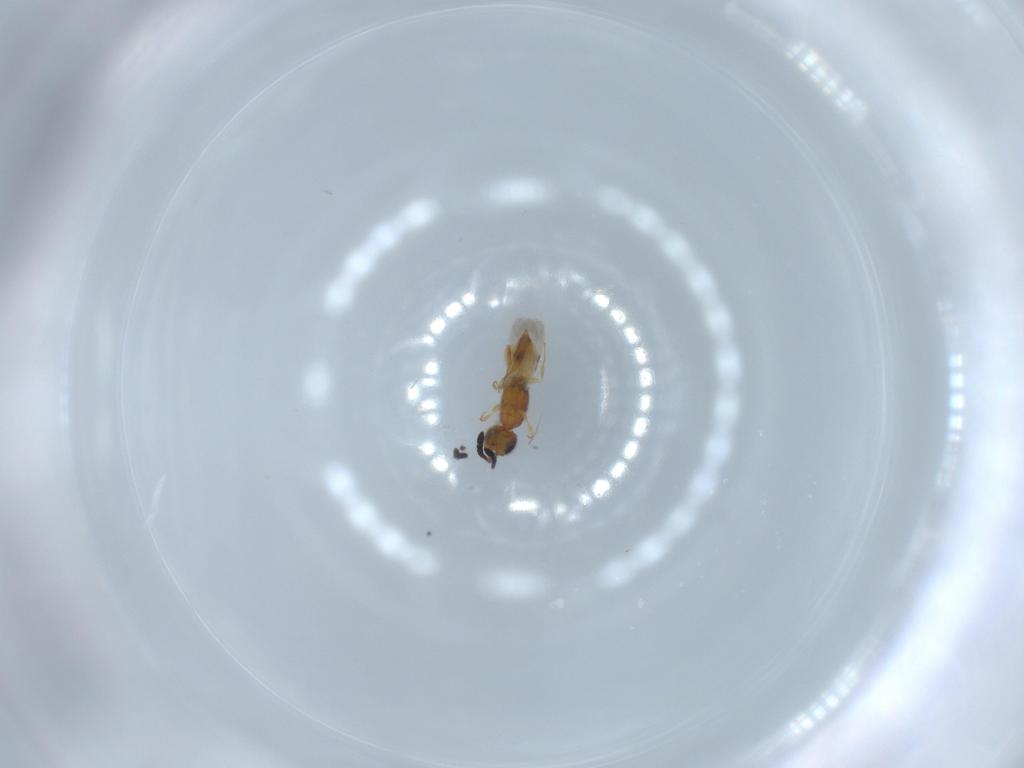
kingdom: Animalia
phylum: Arthropoda
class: Insecta
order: Hymenoptera
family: Ceraphronidae
